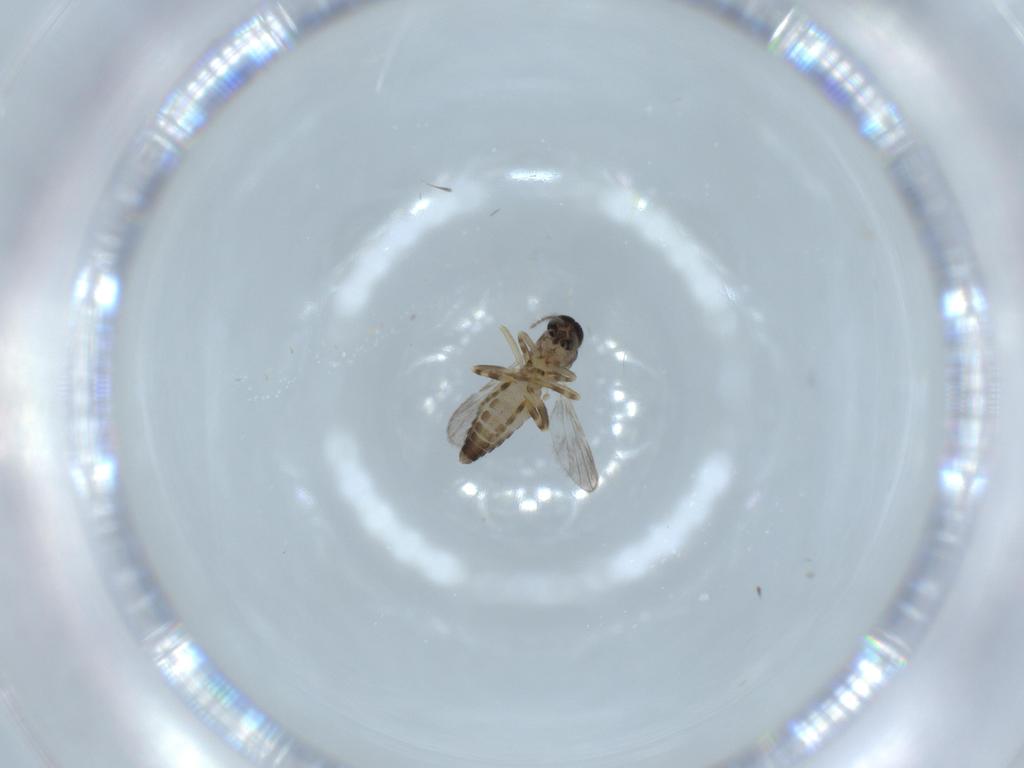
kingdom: Animalia
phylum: Arthropoda
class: Insecta
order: Diptera
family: Ceratopogonidae
